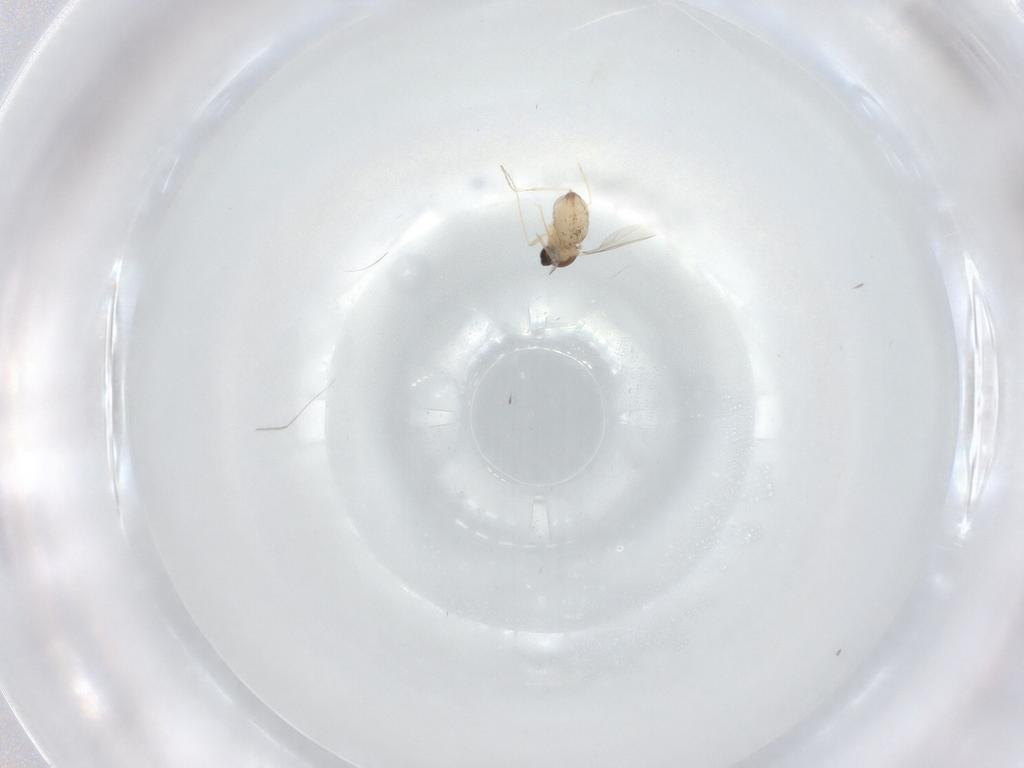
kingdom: Animalia
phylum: Arthropoda
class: Insecta
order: Diptera
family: Cecidomyiidae
